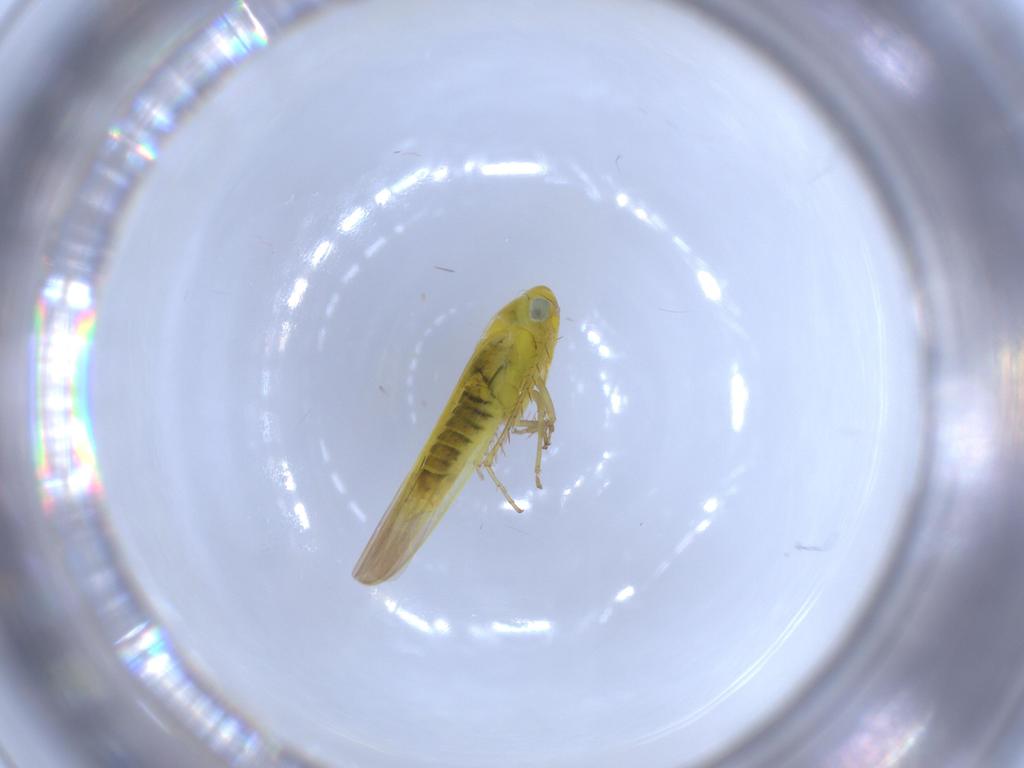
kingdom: Animalia
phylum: Arthropoda
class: Insecta
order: Hemiptera
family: Cicadellidae
